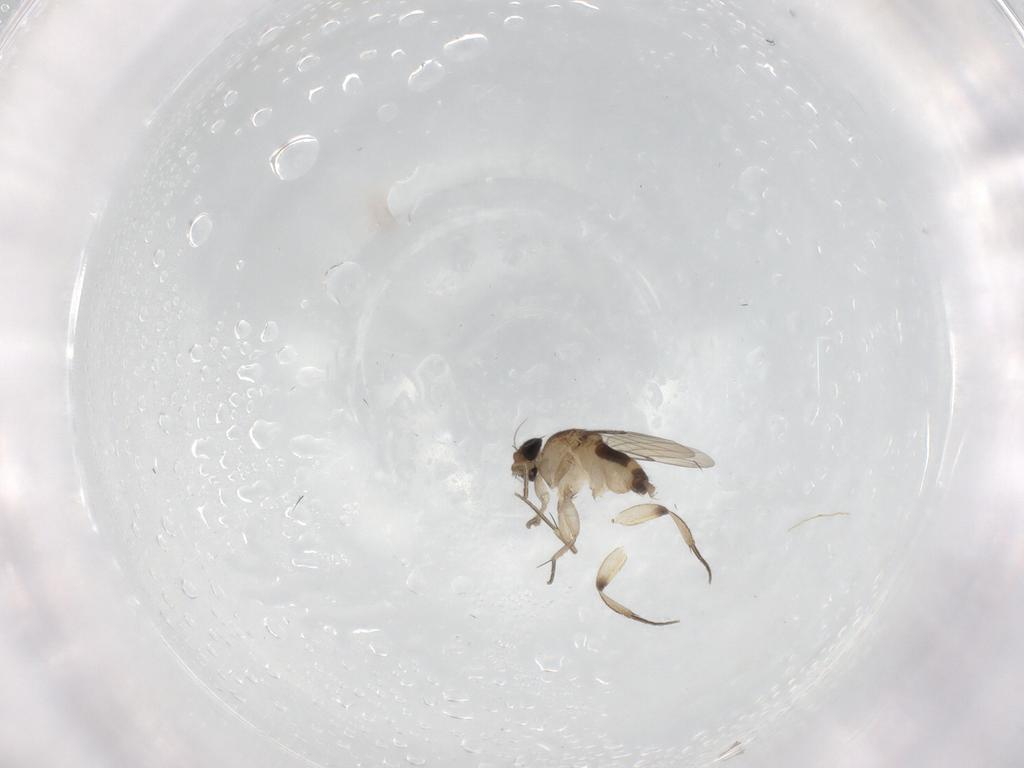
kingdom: Animalia
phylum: Arthropoda
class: Insecta
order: Diptera
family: Phoridae
